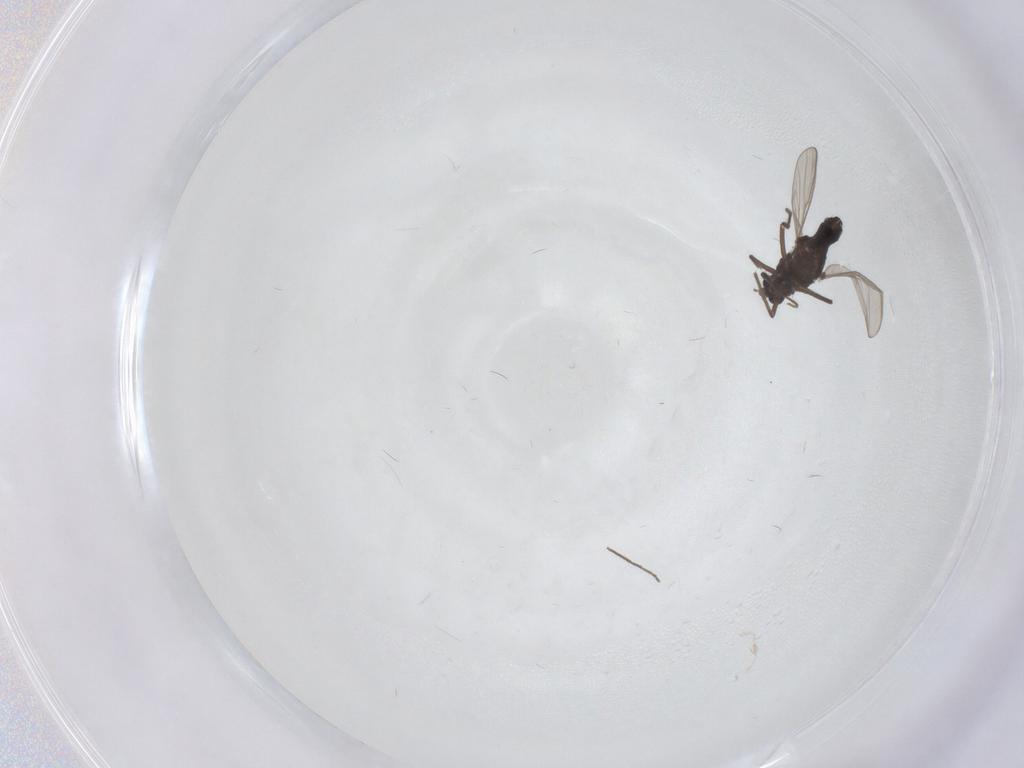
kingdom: Animalia
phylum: Arthropoda
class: Insecta
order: Diptera
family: Chironomidae
